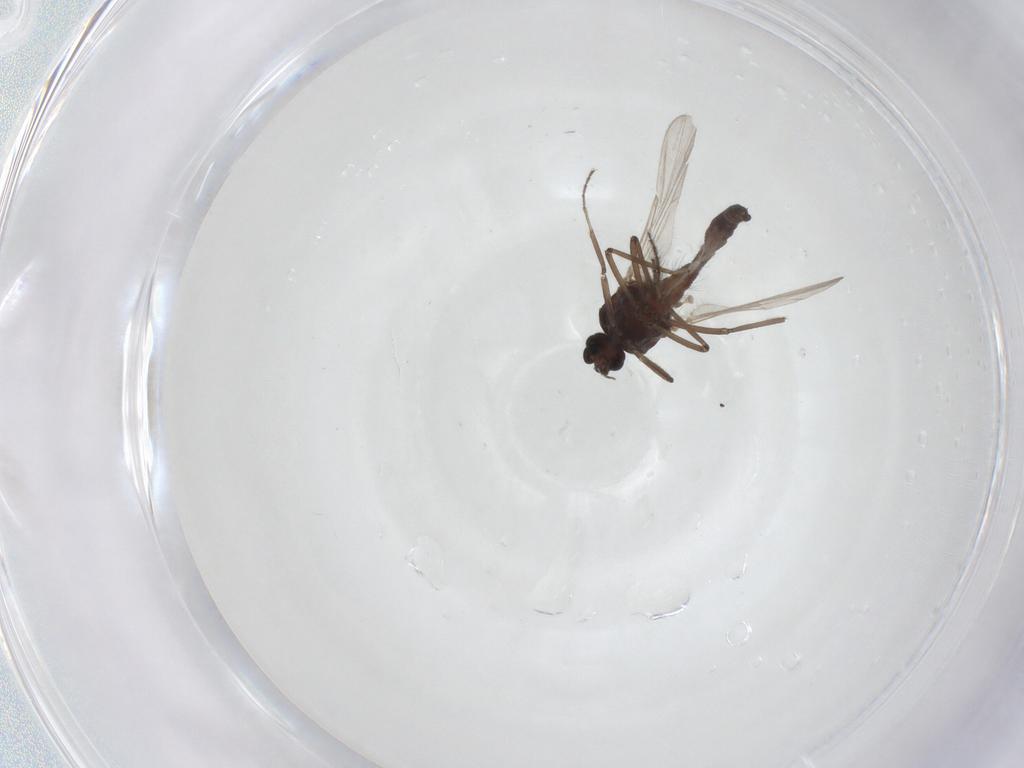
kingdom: Animalia
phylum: Arthropoda
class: Insecta
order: Diptera
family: Ceratopogonidae
